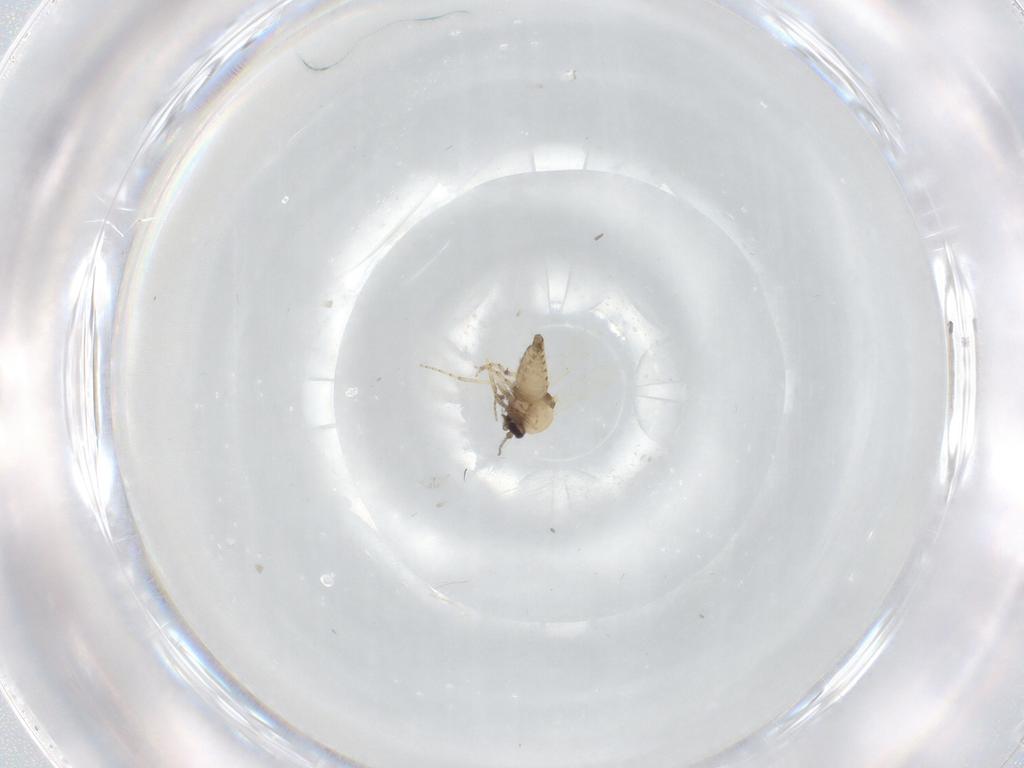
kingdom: Animalia
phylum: Arthropoda
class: Insecta
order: Diptera
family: Ceratopogonidae
